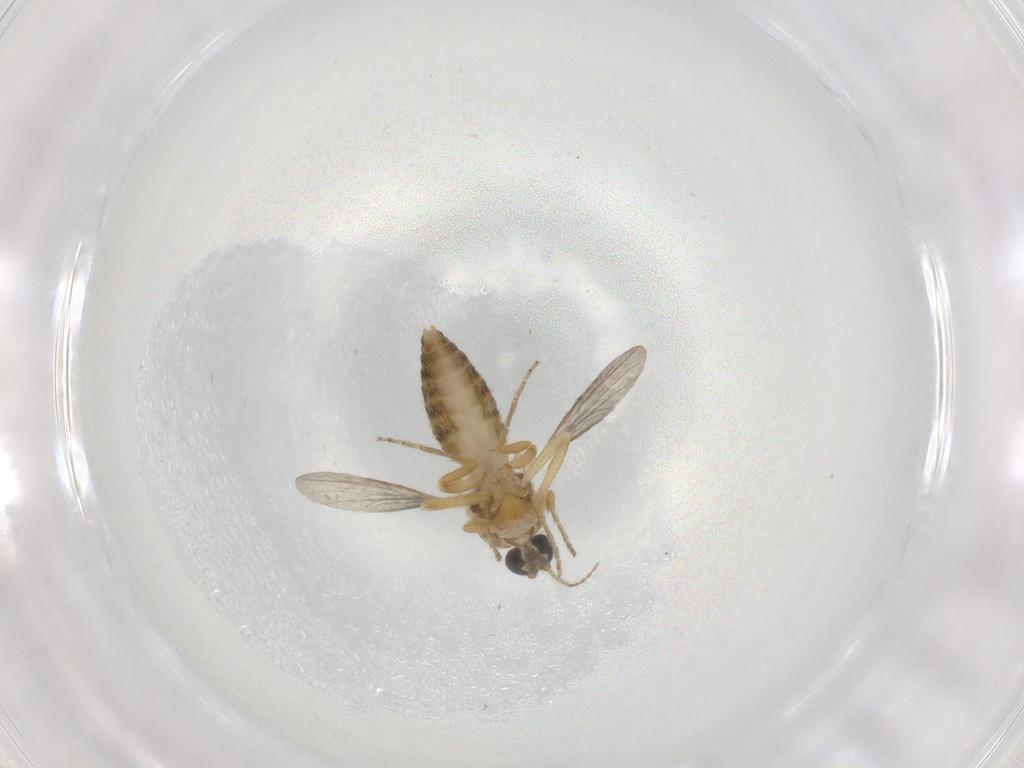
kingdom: Animalia
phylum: Arthropoda
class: Insecta
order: Diptera
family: Ceratopogonidae
